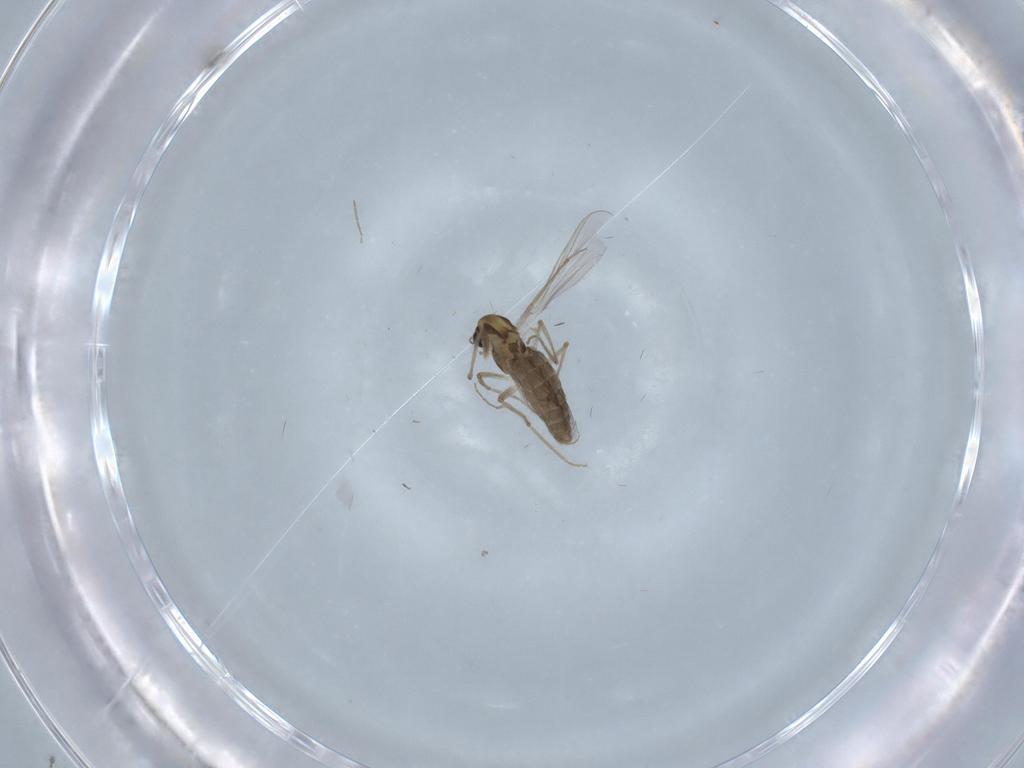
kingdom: Animalia
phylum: Arthropoda
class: Insecta
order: Diptera
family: Chironomidae
